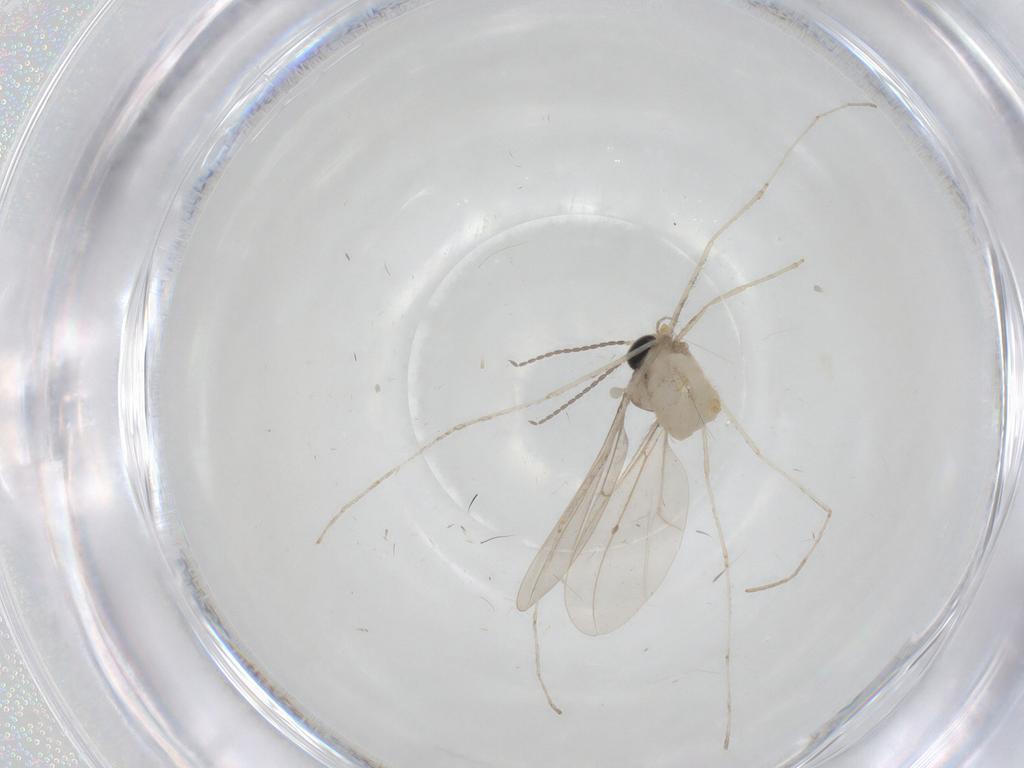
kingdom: Animalia
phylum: Arthropoda
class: Insecta
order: Diptera
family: Cecidomyiidae
